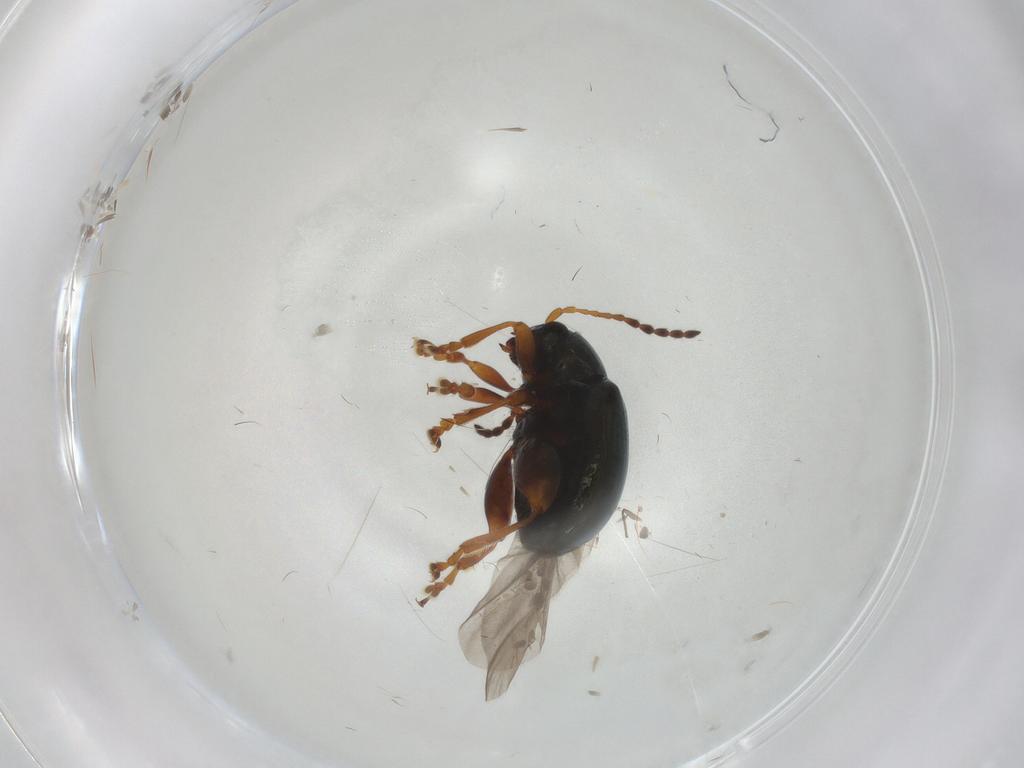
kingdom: Animalia
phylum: Arthropoda
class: Insecta
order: Coleoptera
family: Chrysomelidae
